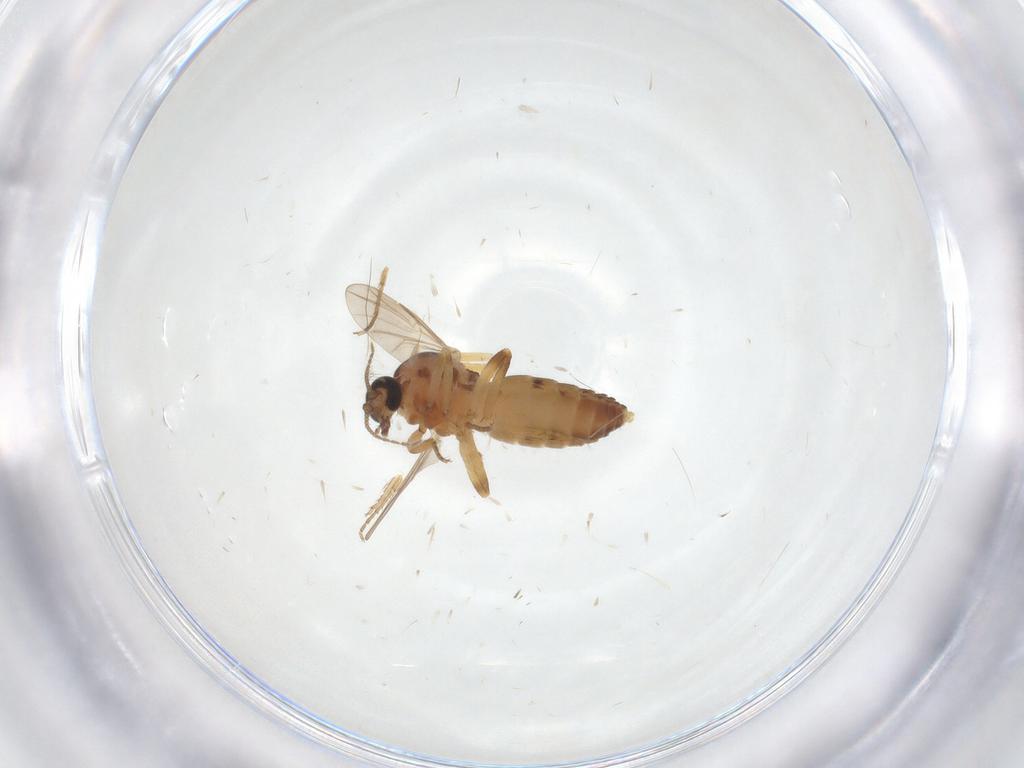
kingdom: Animalia
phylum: Arthropoda
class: Insecta
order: Diptera
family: Ceratopogonidae
